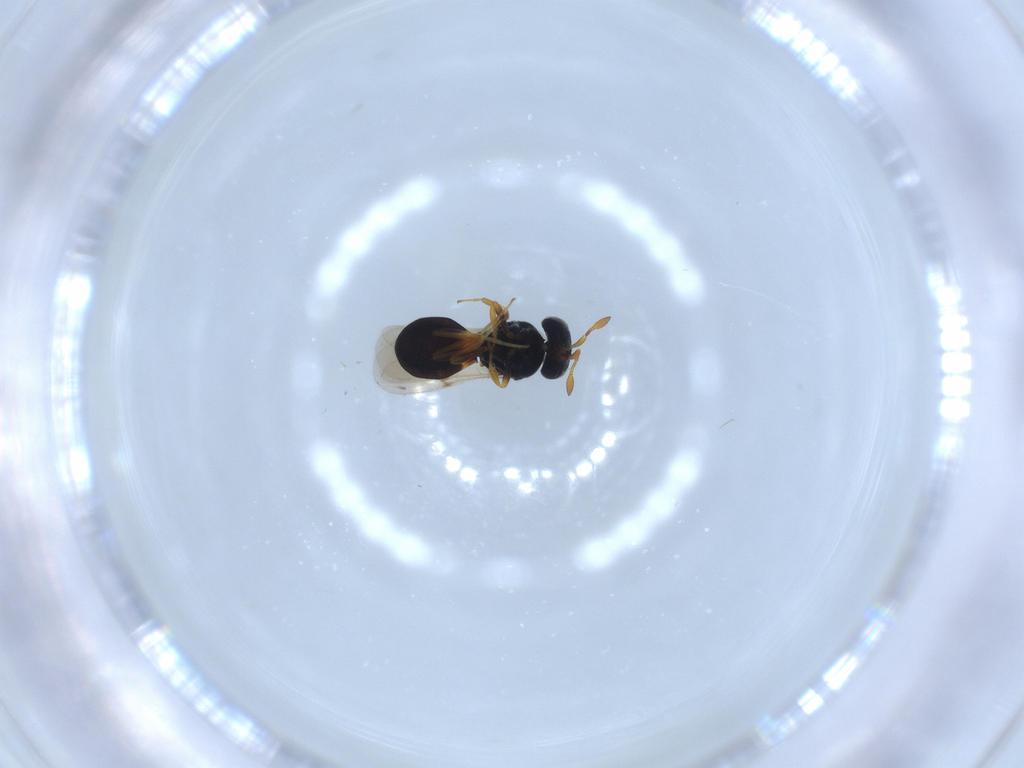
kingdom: Animalia
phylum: Arthropoda
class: Insecta
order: Hymenoptera
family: Scelionidae
